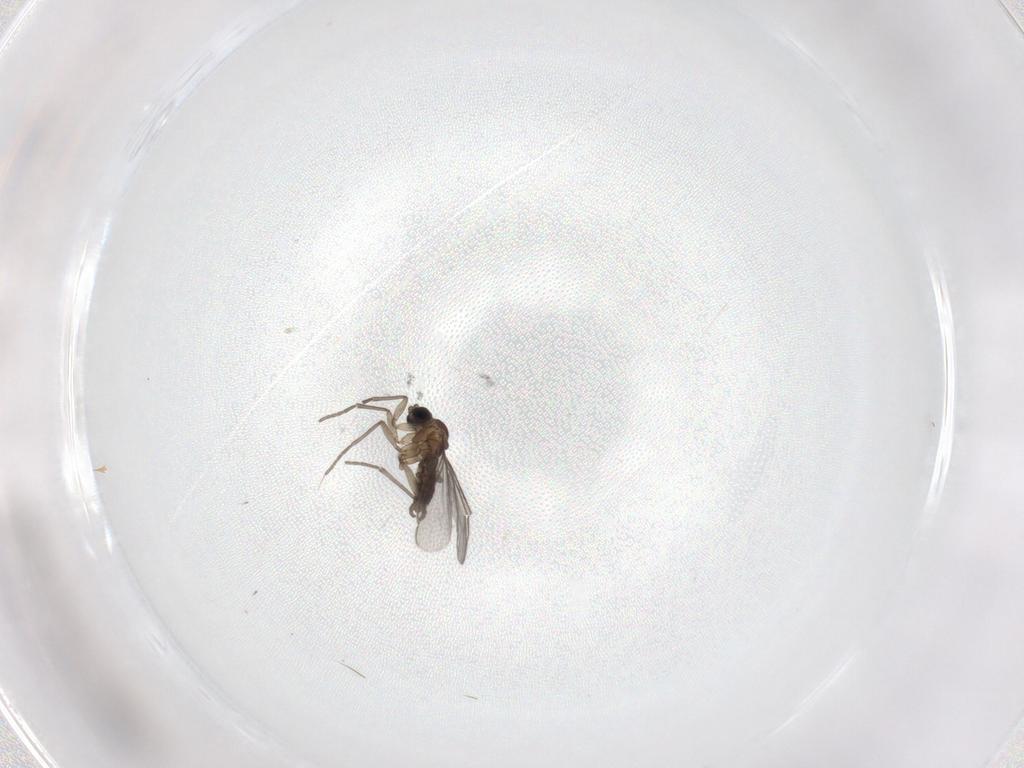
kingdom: Animalia
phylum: Arthropoda
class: Insecta
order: Diptera
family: Sciaridae
